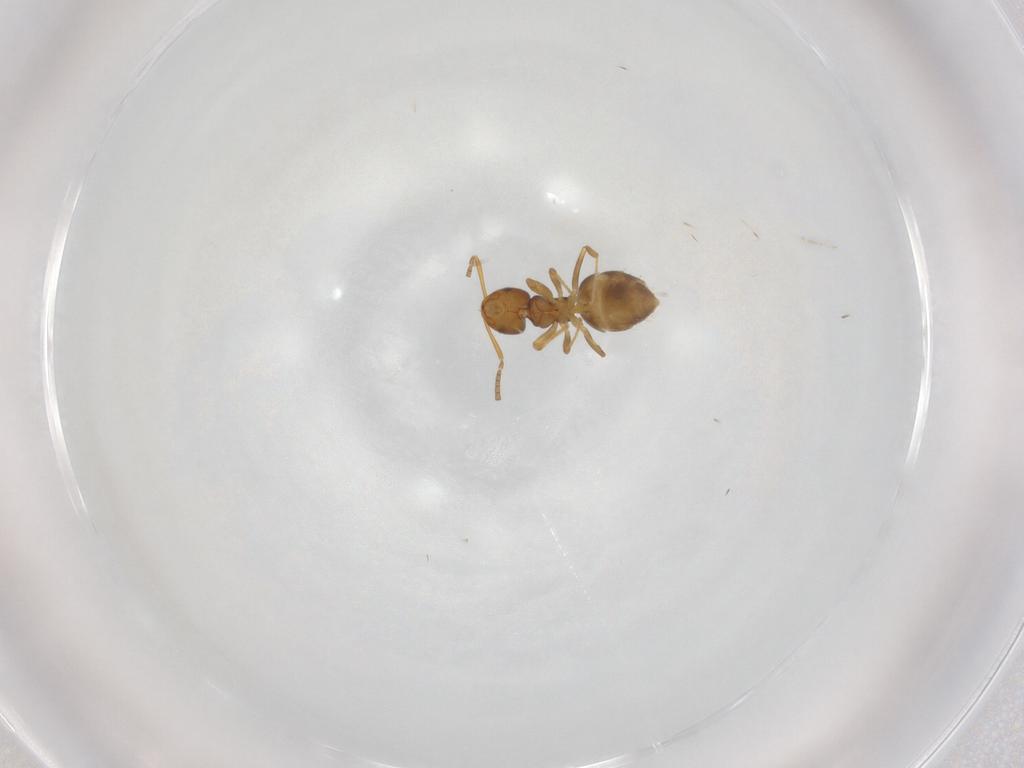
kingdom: Animalia
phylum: Arthropoda
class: Insecta
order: Hymenoptera
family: Formicidae
